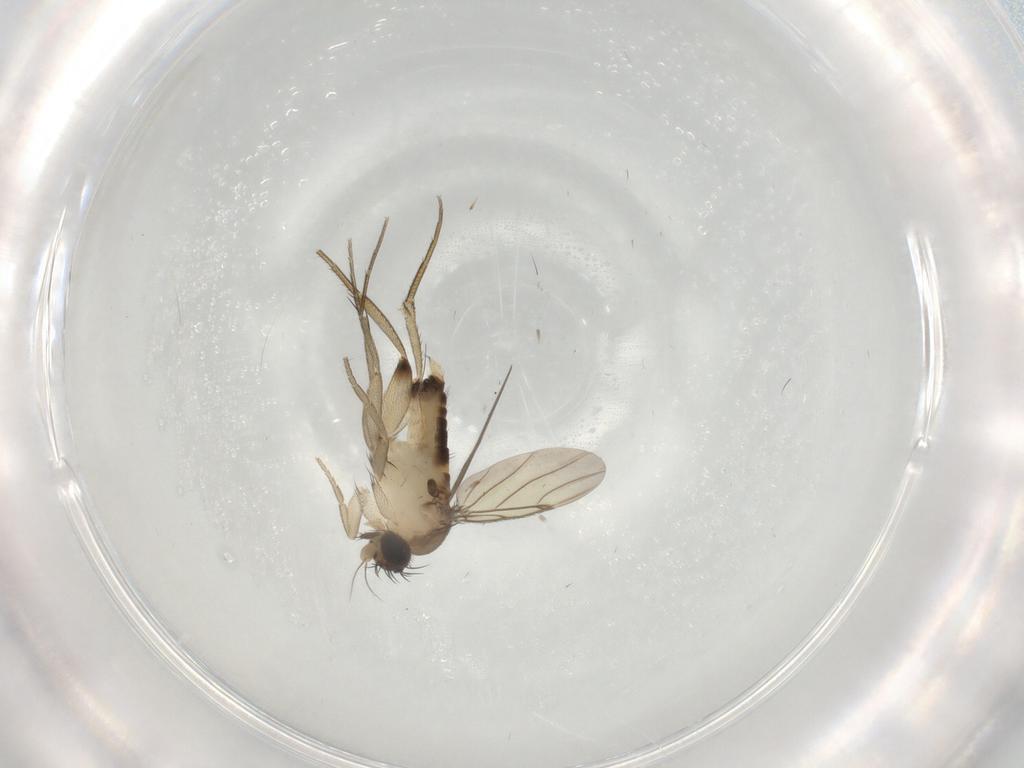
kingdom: Animalia
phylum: Arthropoda
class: Insecta
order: Diptera
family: Phoridae
